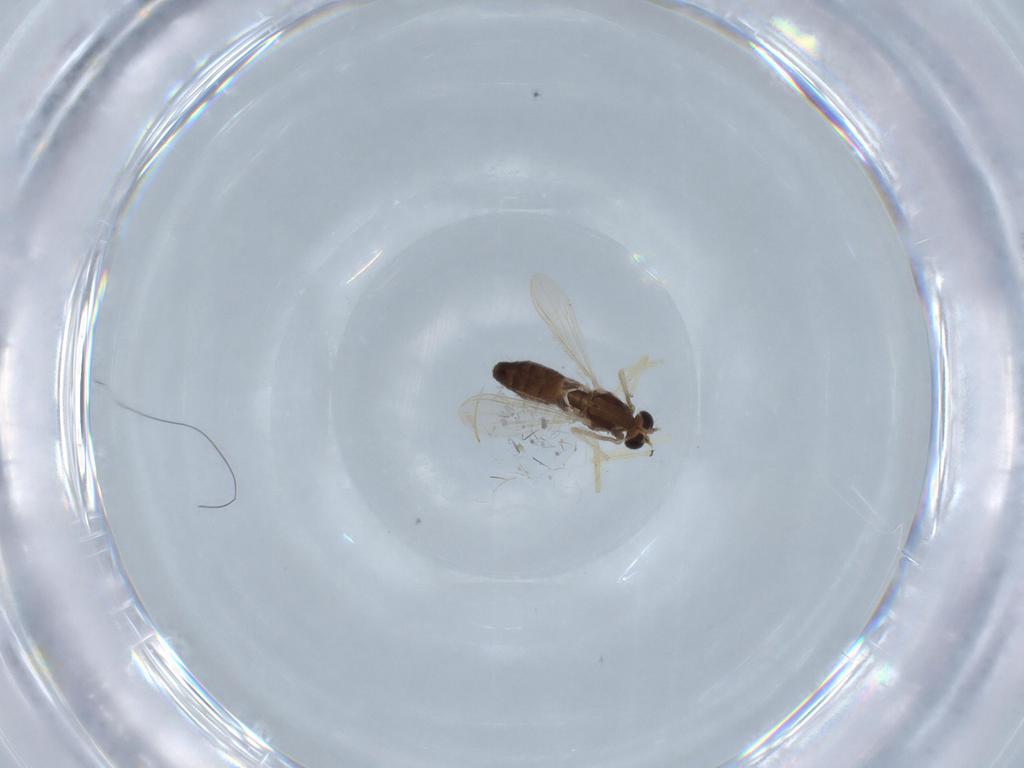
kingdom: Animalia
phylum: Arthropoda
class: Insecta
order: Diptera
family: Chironomidae
